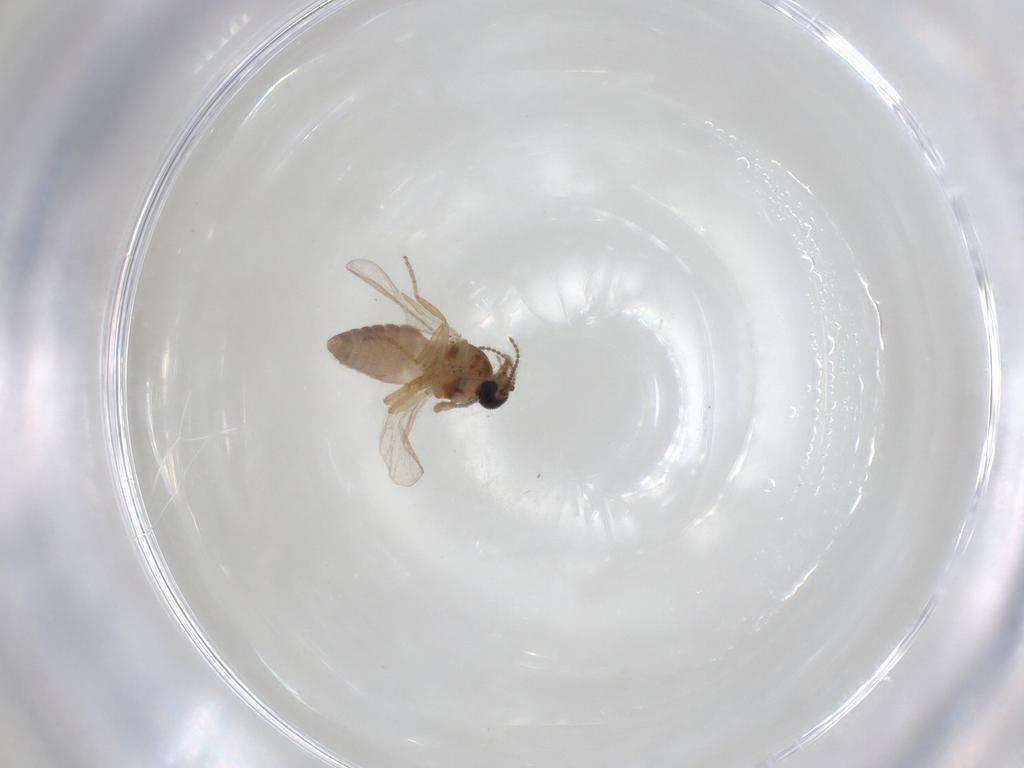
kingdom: Animalia
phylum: Arthropoda
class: Insecta
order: Diptera
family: Ceratopogonidae
